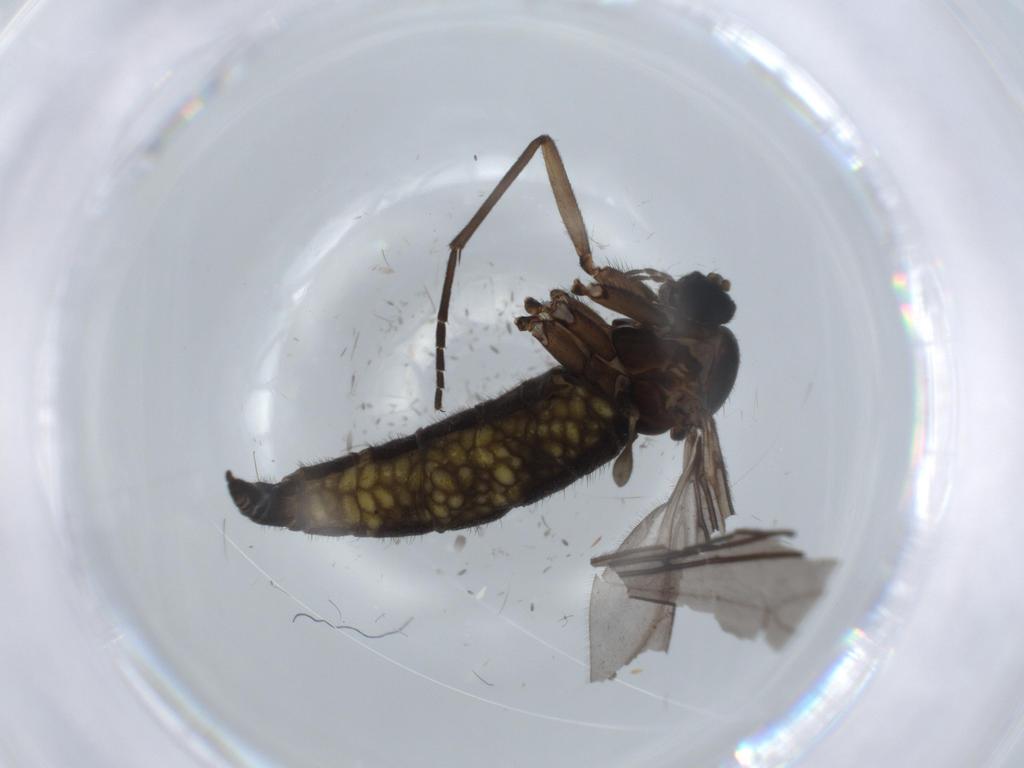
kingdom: Animalia
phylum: Arthropoda
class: Insecta
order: Diptera
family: Sciaridae
